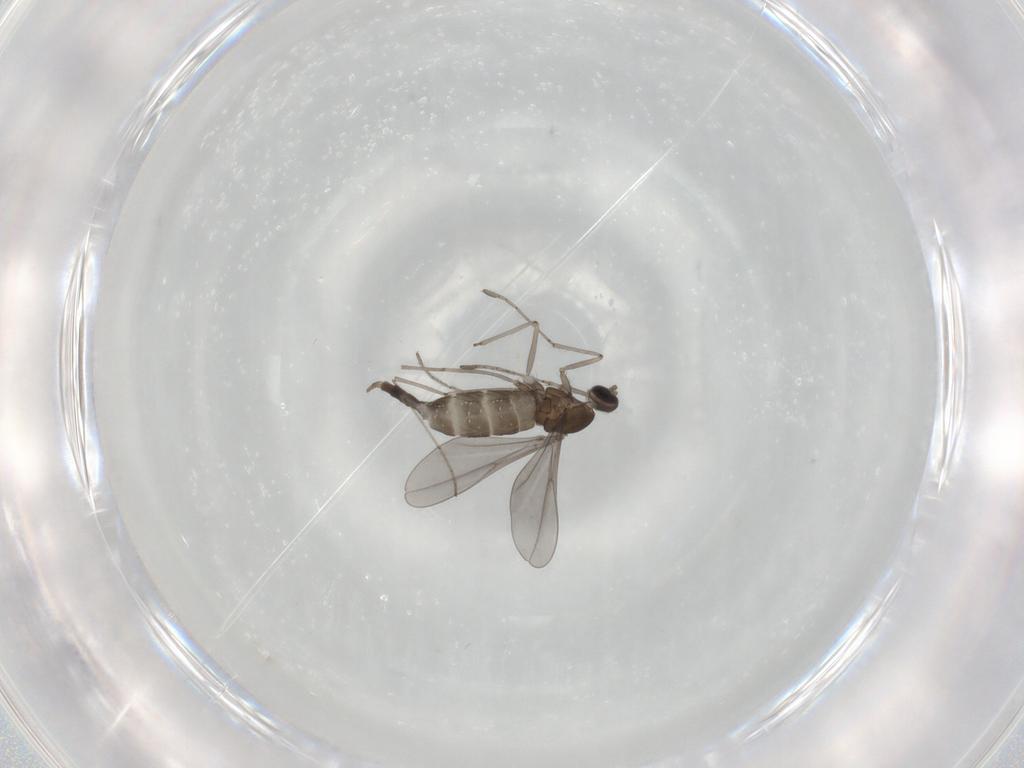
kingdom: Animalia
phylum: Arthropoda
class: Insecta
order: Diptera
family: Cecidomyiidae
